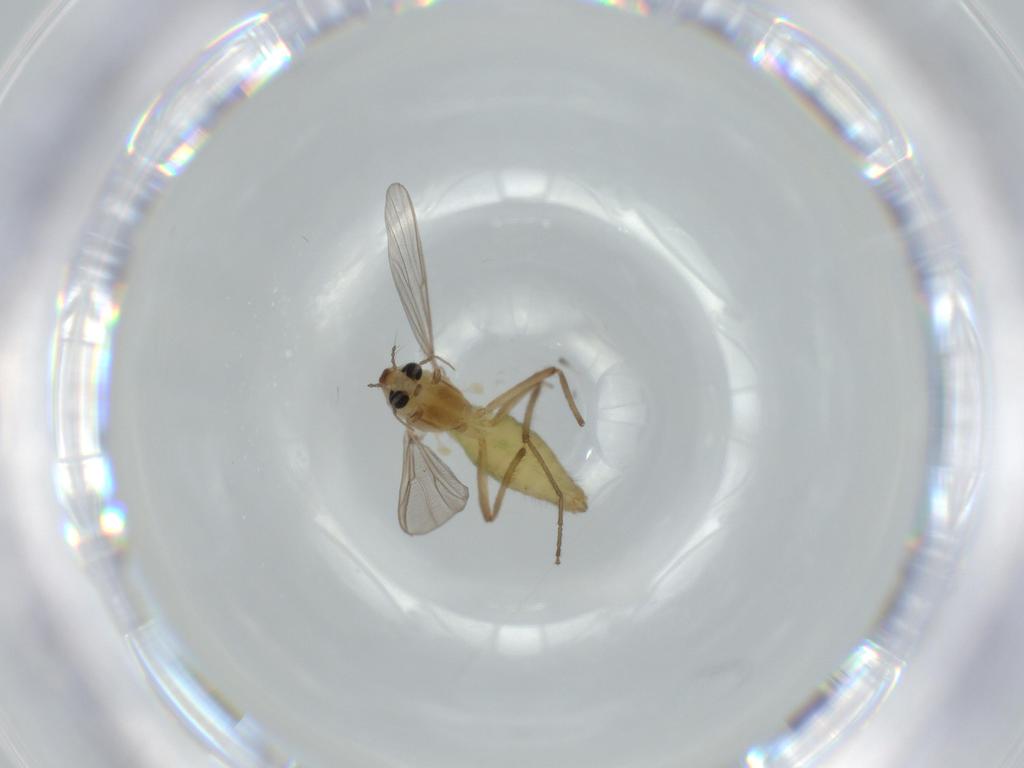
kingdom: Animalia
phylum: Arthropoda
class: Insecta
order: Diptera
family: Chironomidae
